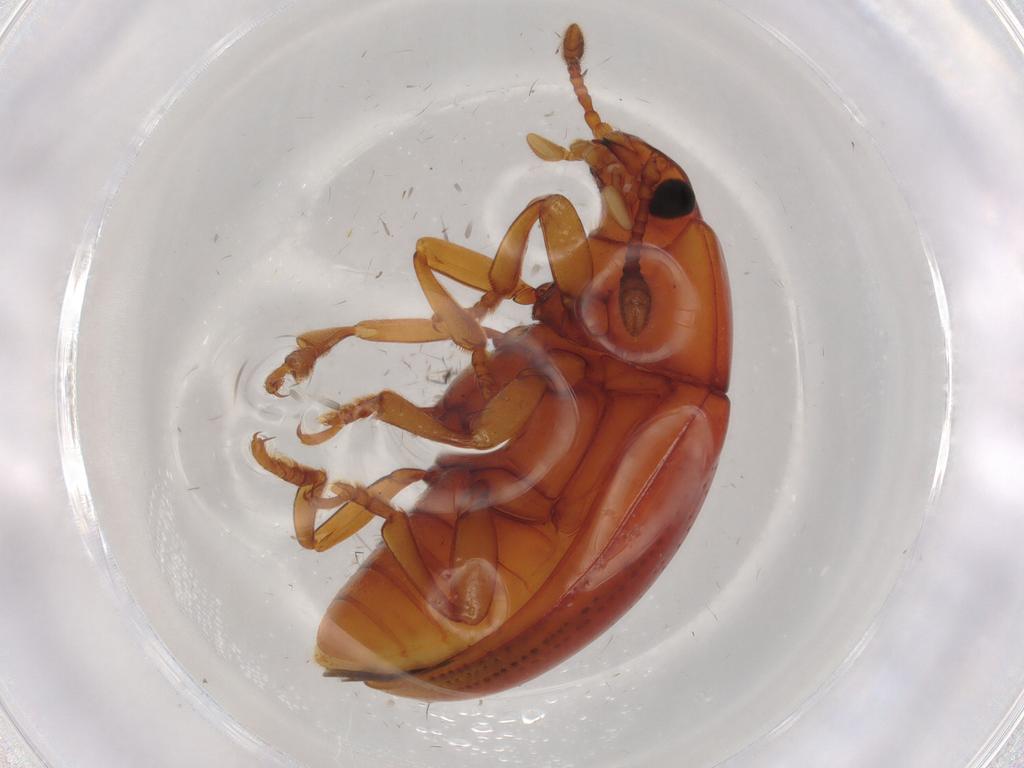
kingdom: Animalia
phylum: Arthropoda
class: Insecta
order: Coleoptera
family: Erotylidae
